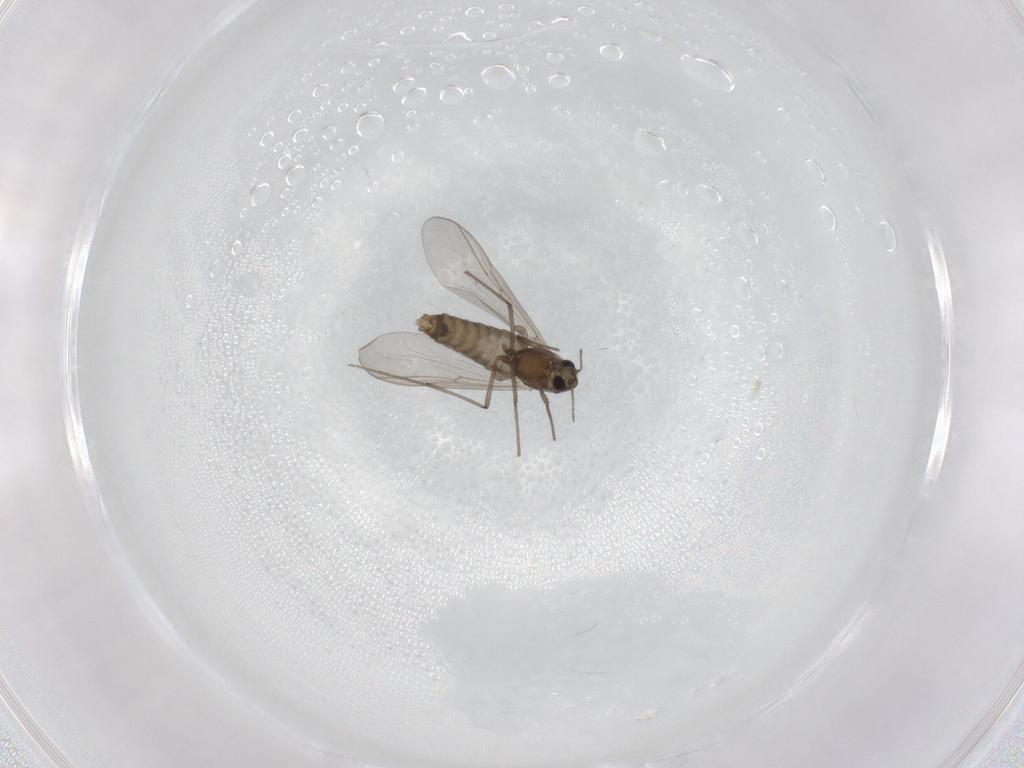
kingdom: Animalia
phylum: Arthropoda
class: Insecta
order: Diptera
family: Chironomidae
